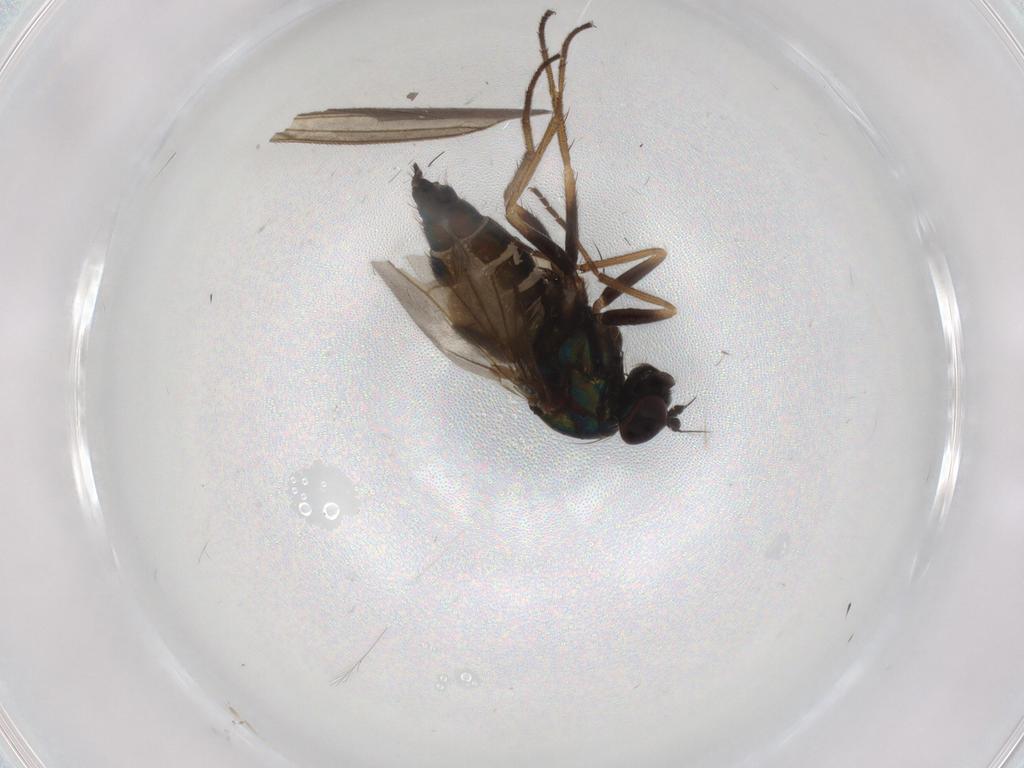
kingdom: Animalia
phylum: Arthropoda
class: Insecta
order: Diptera
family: Dolichopodidae
